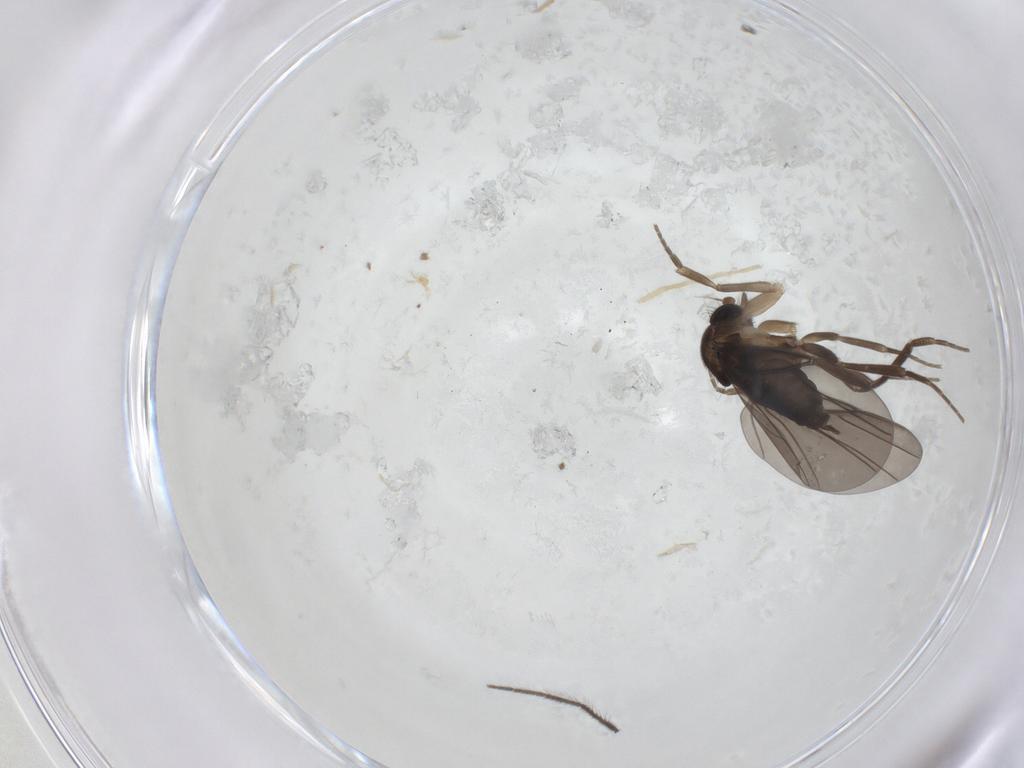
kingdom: Animalia
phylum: Arthropoda
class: Insecta
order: Diptera
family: Phoridae
